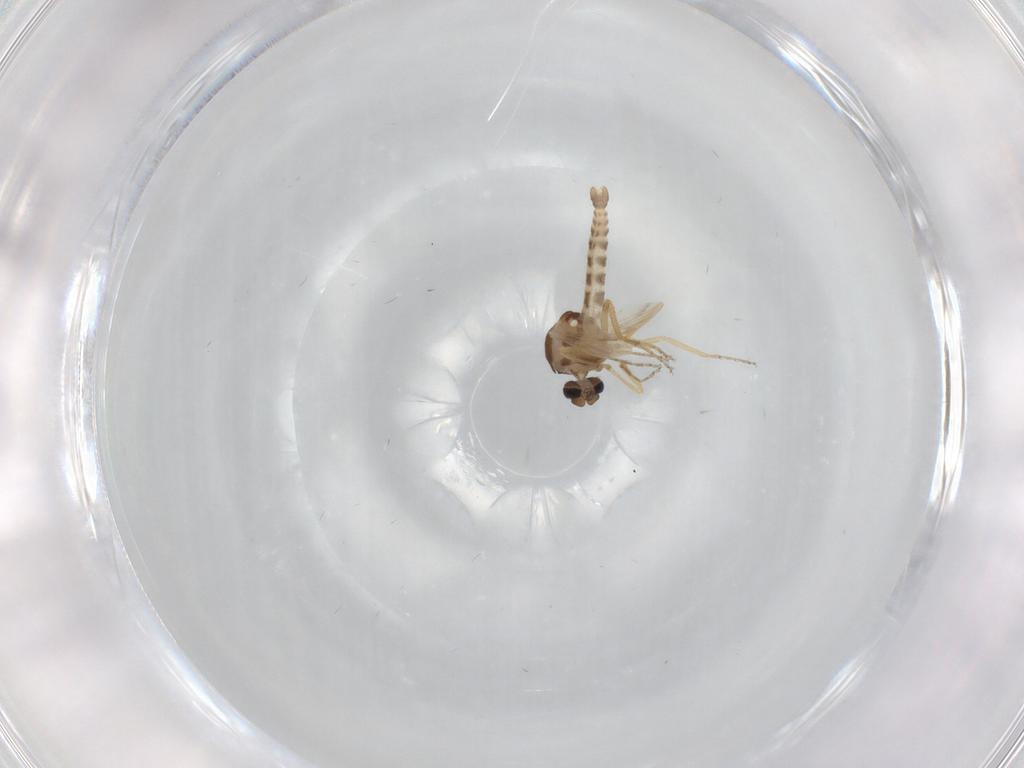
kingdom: Animalia
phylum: Arthropoda
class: Insecta
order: Diptera
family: Ceratopogonidae
